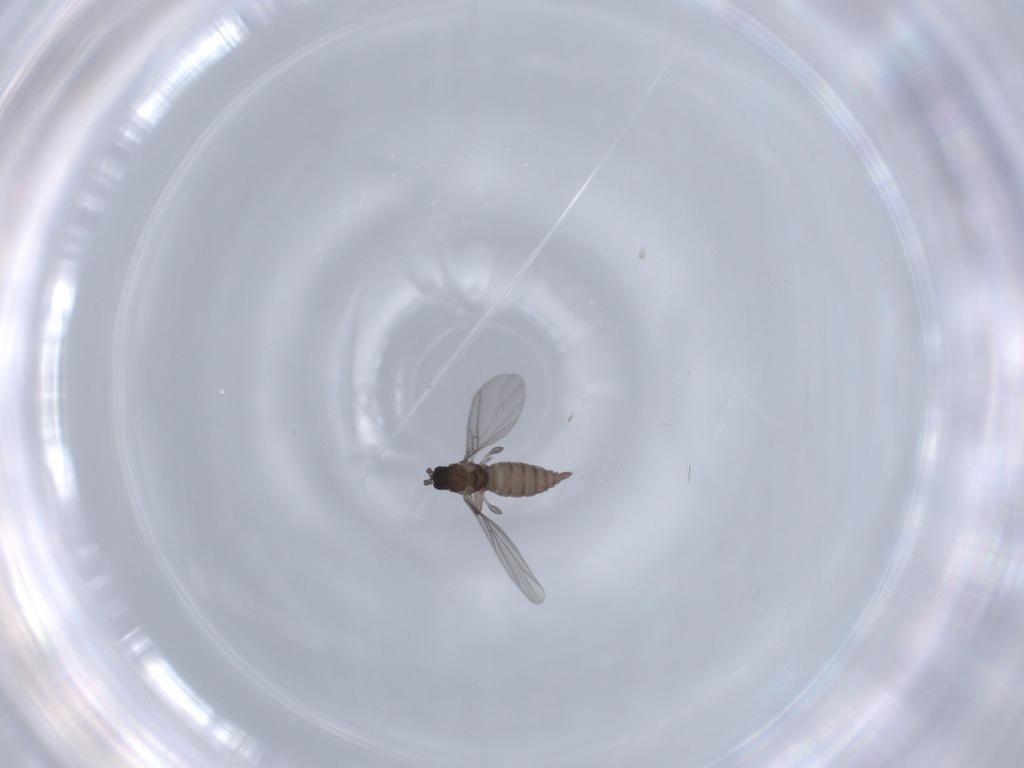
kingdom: Animalia
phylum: Arthropoda
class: Insecta
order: Diptera
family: Sciaridae
